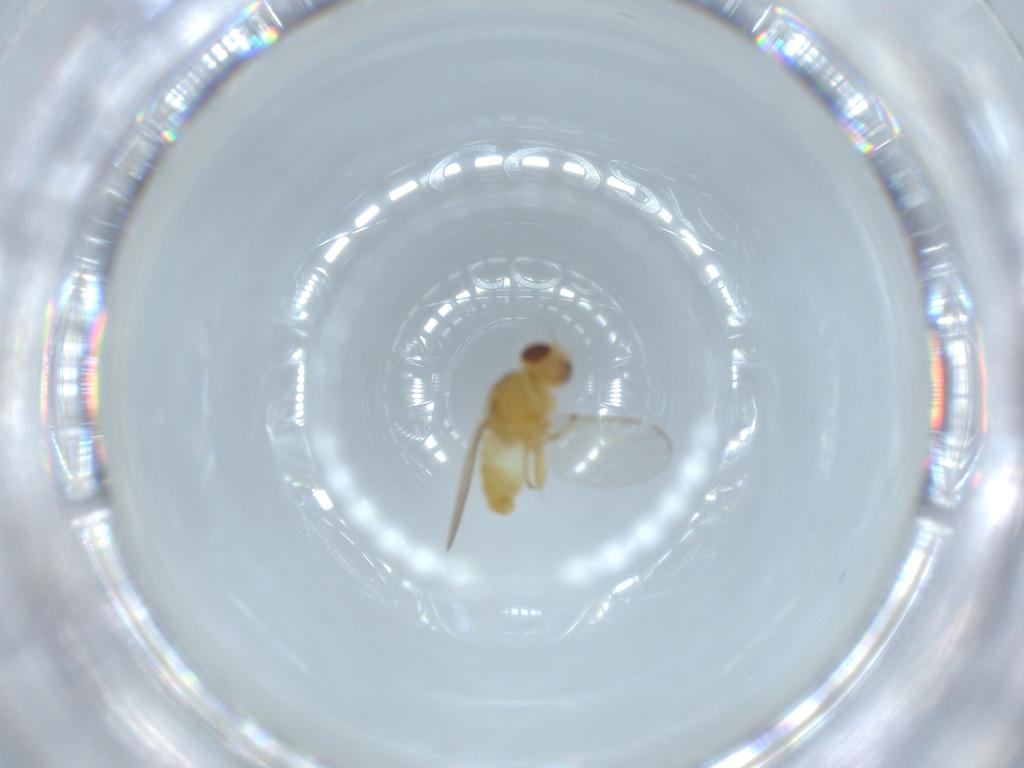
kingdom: Animalia
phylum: Arthropoda
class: Insecta
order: Diptera
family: Chloropidae
